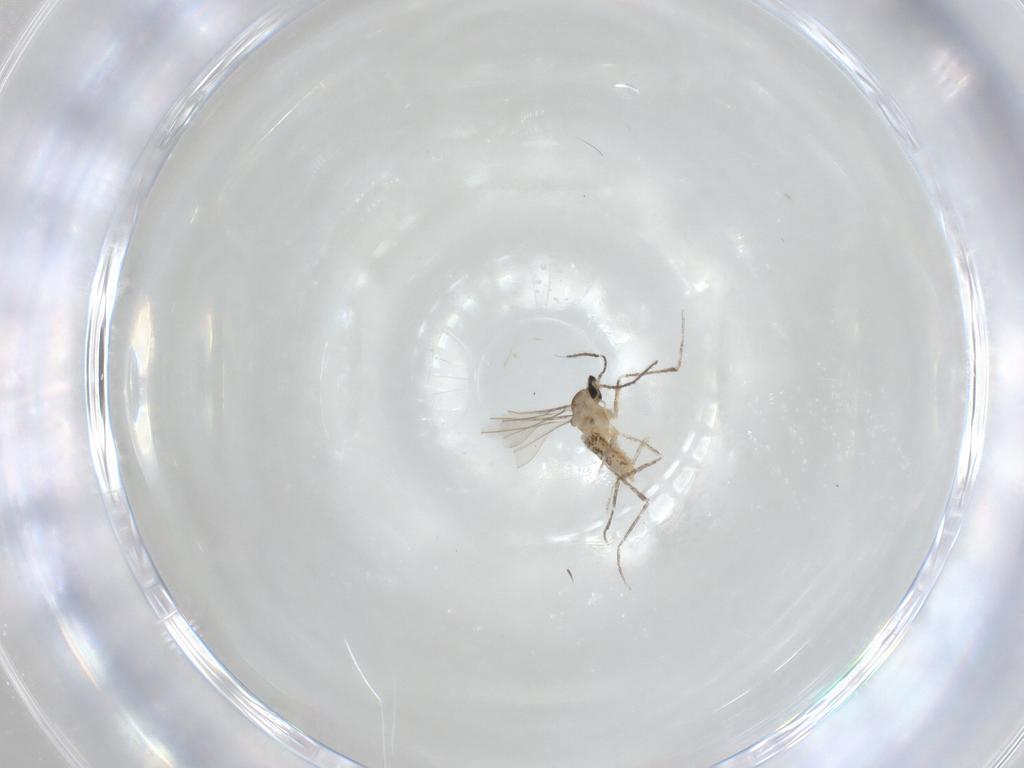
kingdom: Animalia
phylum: Arthropoda
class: Insecta
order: Diptera
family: Cecidomyiidae
